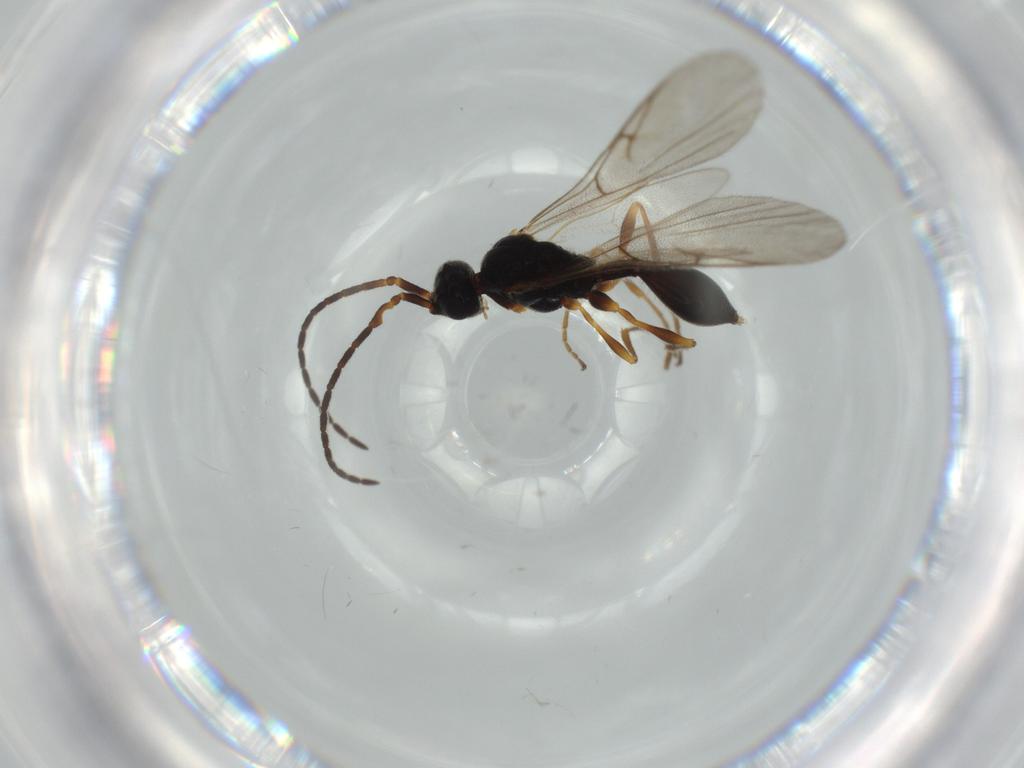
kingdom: Animalia
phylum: Arthropoda
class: Insecta
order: Hymenoptera
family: Diapriidae
